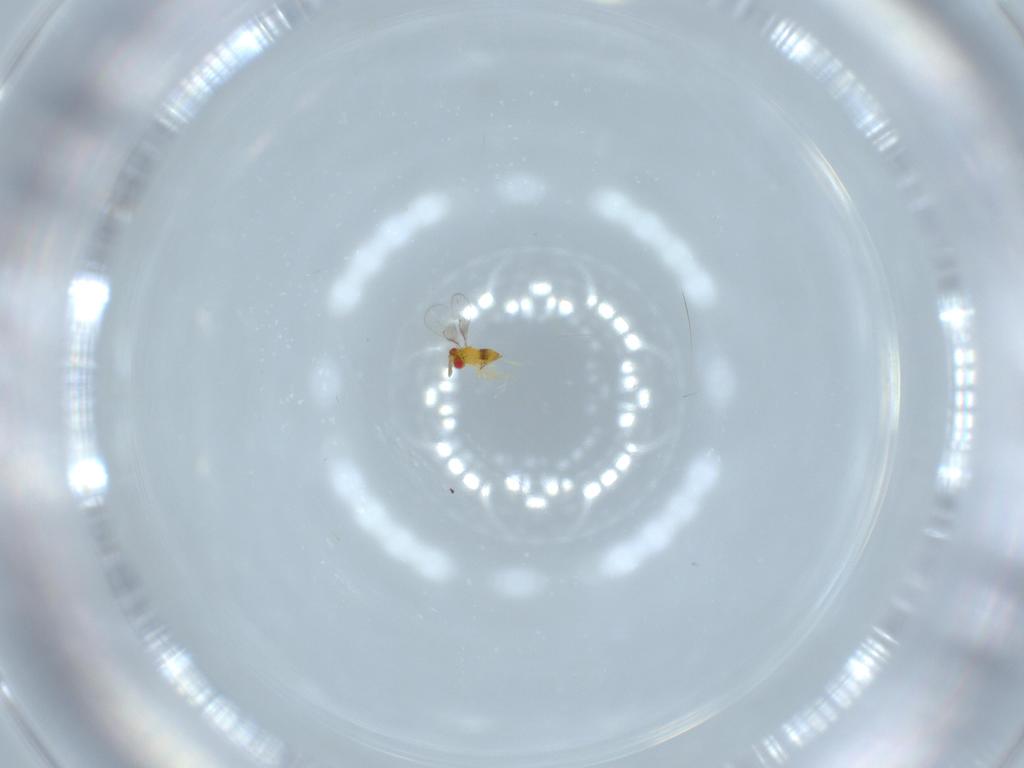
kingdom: Animalia
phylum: Arthropoda
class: Insecta
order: Hymenoptera
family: Trichogrammatidae
